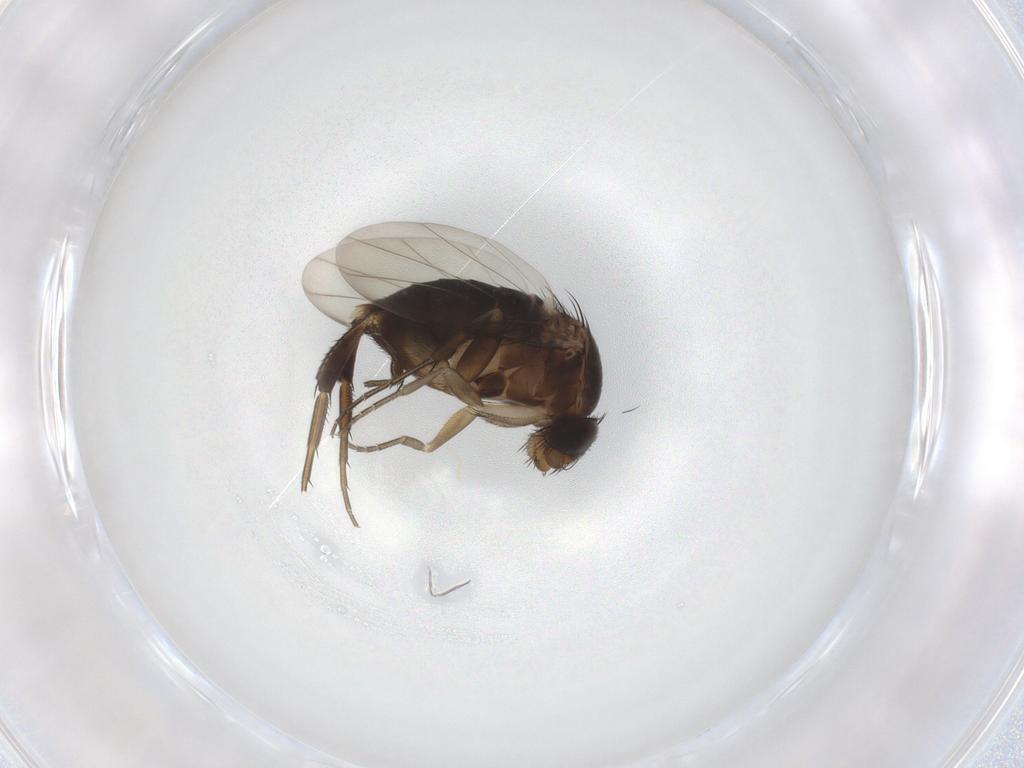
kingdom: Animalia
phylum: Arthropoda
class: Insecta
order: Diptera
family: Phoridae
